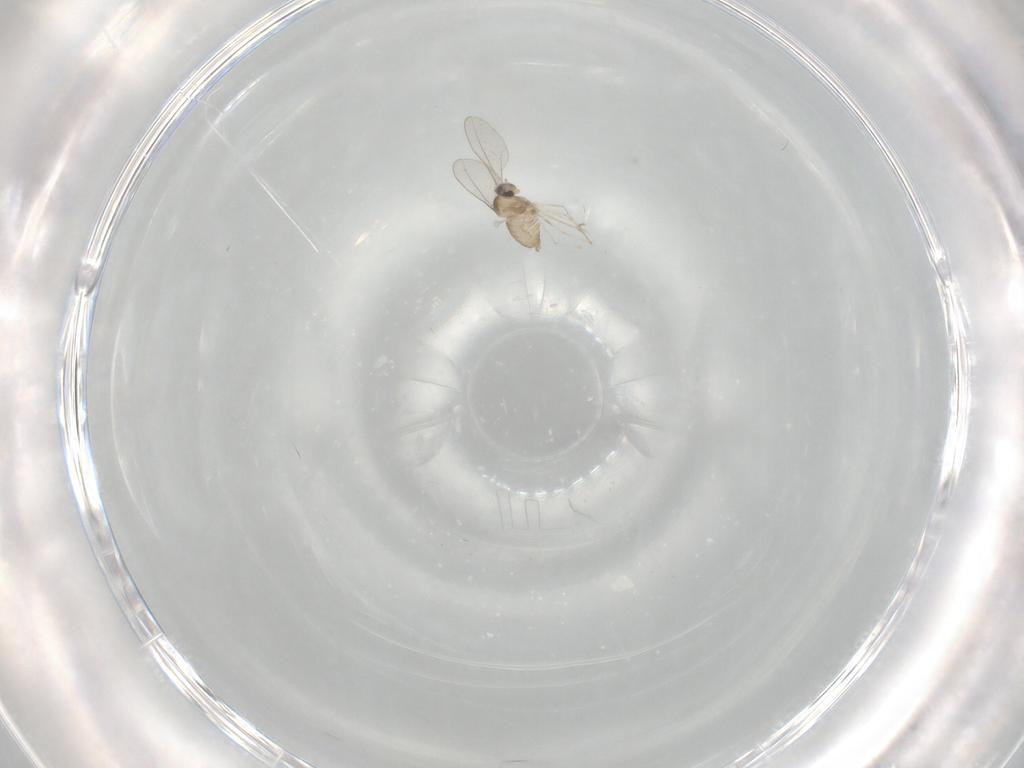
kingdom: Animalia
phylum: Arthropoda
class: Insecta
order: Diptera
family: Cecidomyiidae
